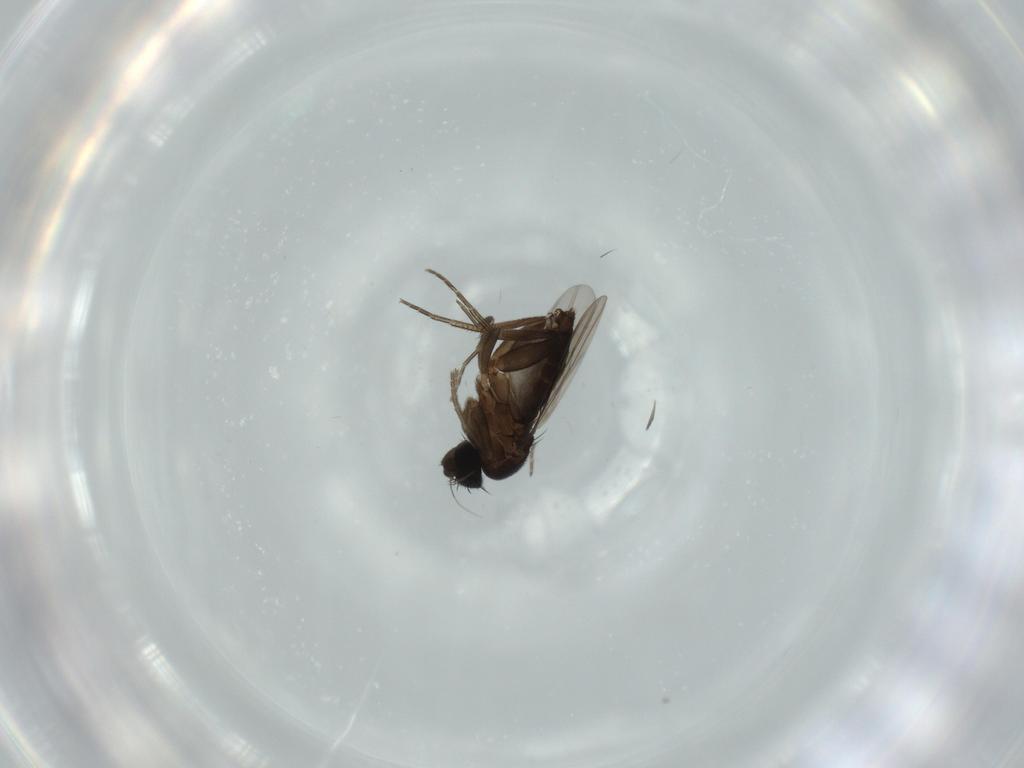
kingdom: Animalia
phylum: Arthropoda
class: Insecta
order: Diptera
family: Phoridae
